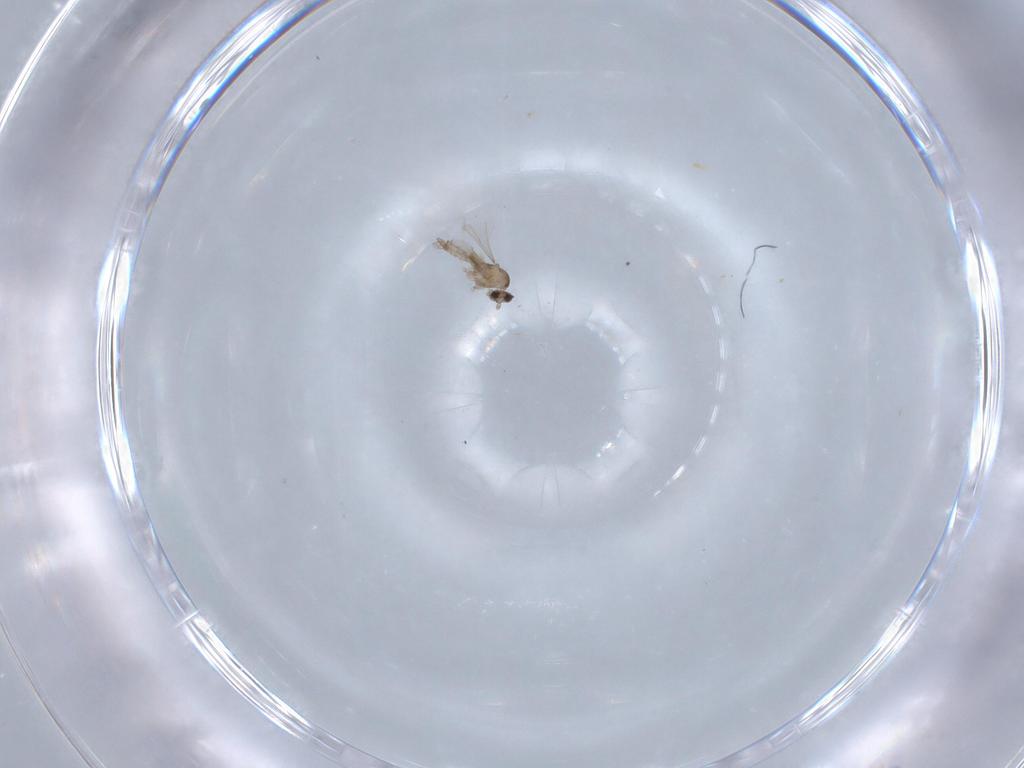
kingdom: Animalia
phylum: Arthropoda
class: Insecta
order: Diptera
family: Cecidomyiidae
